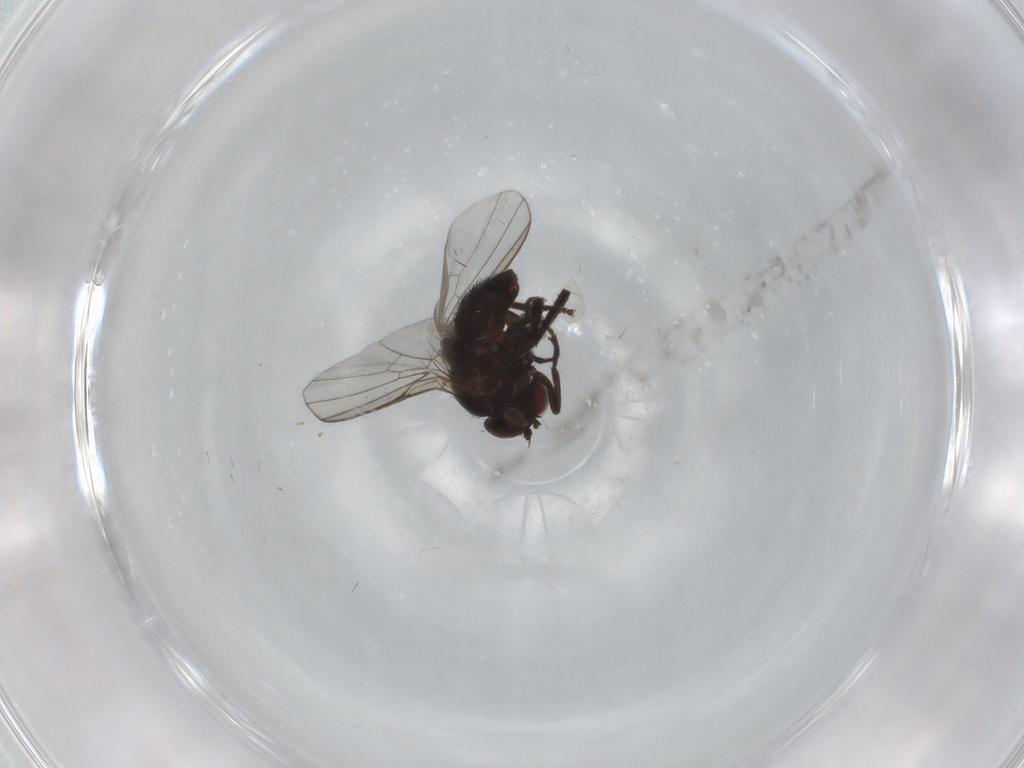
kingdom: Animalia
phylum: Arthropoda
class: Insecta
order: Diptera
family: Agromyzidae
